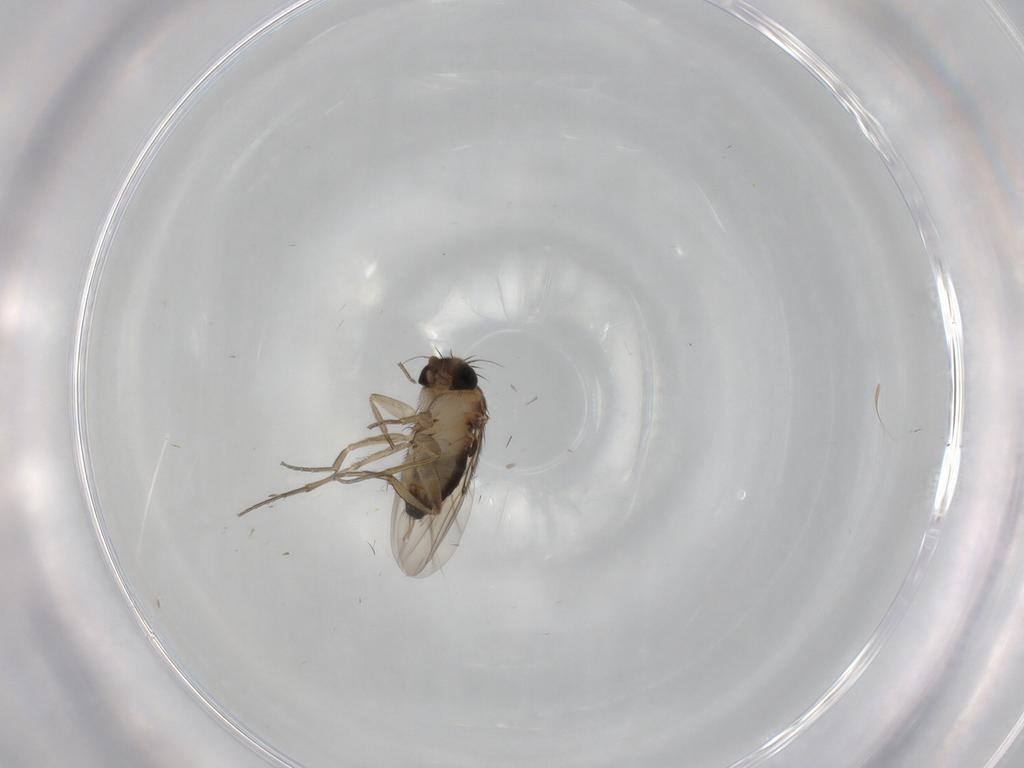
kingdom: Animalia
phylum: Arthropoda
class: Insecta
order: Diptera
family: Cecidomyiidae
